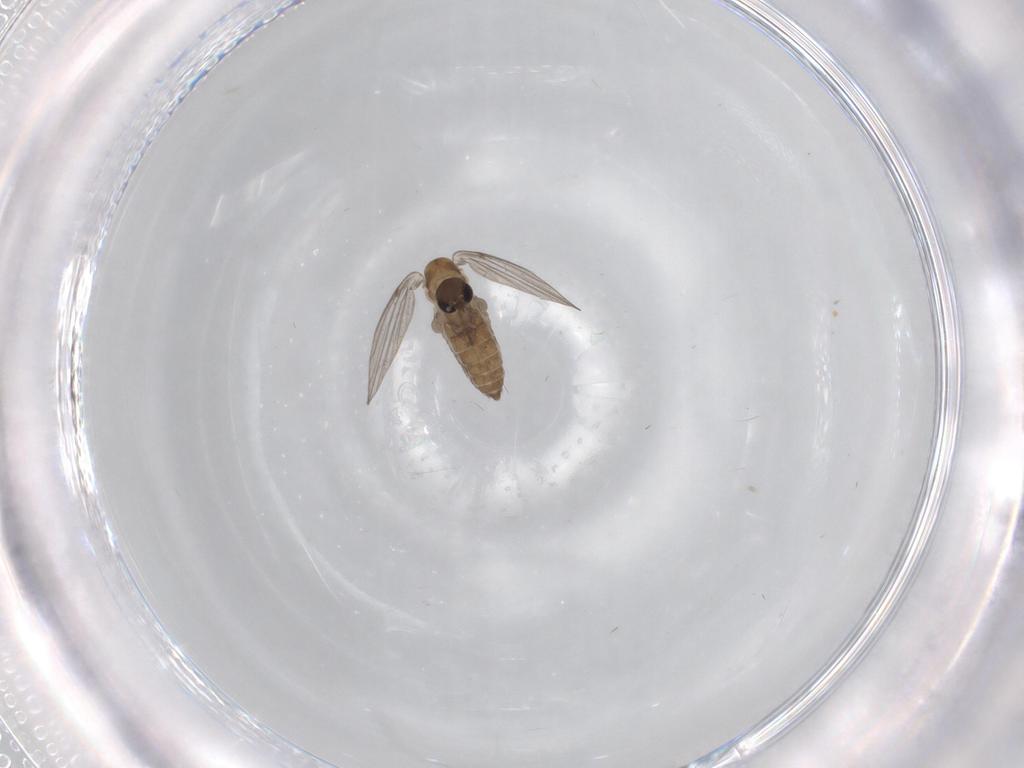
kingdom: Animalia
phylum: Arthropoda
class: Insecta
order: Diptera
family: Psychodidae
